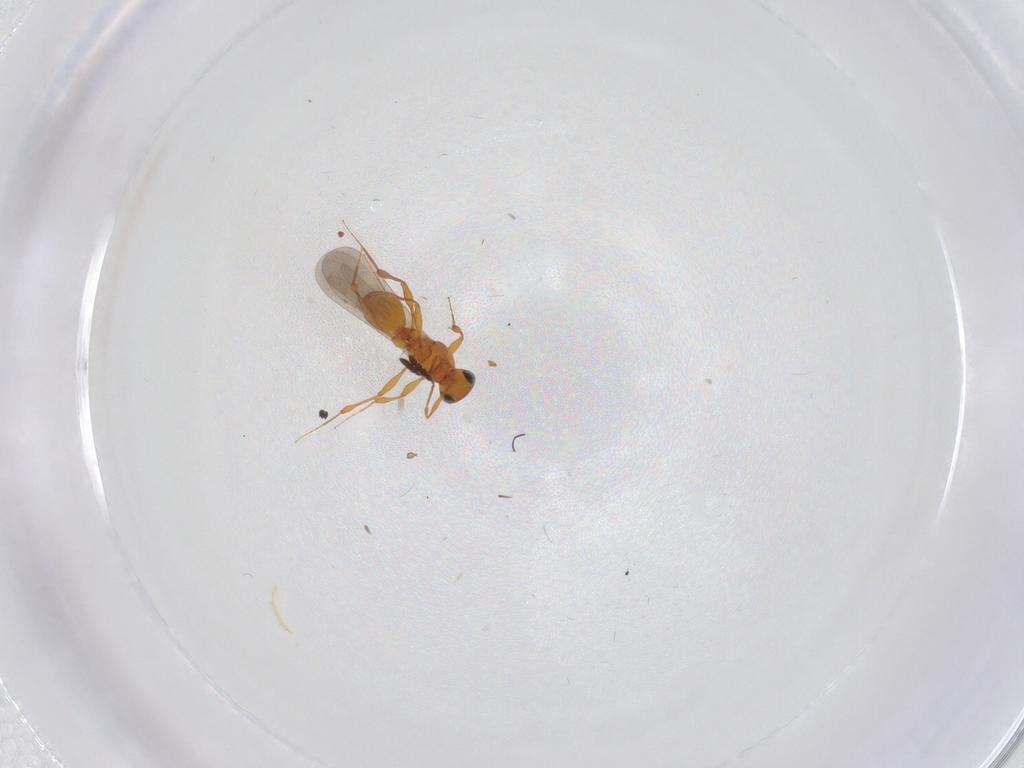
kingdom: Animalia
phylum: Arthropoda
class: Insecta
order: Hymenoptera
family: Platygastridae
